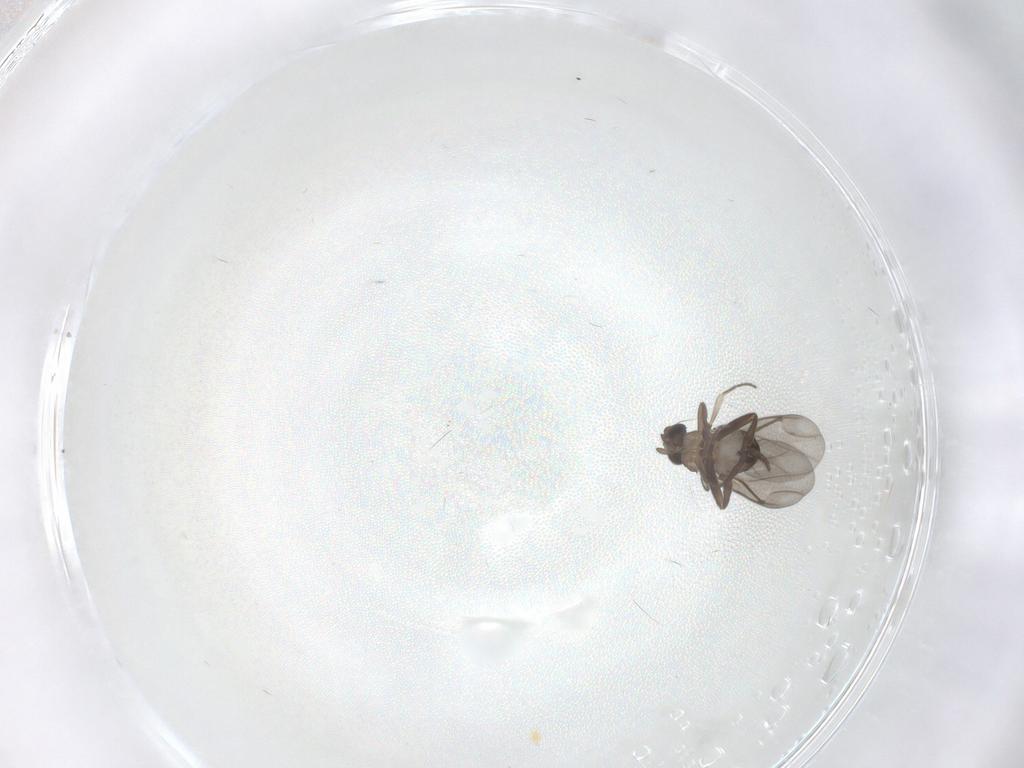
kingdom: Animalia
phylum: Arthropoda
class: Insecta
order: Diptera
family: Phoridae
